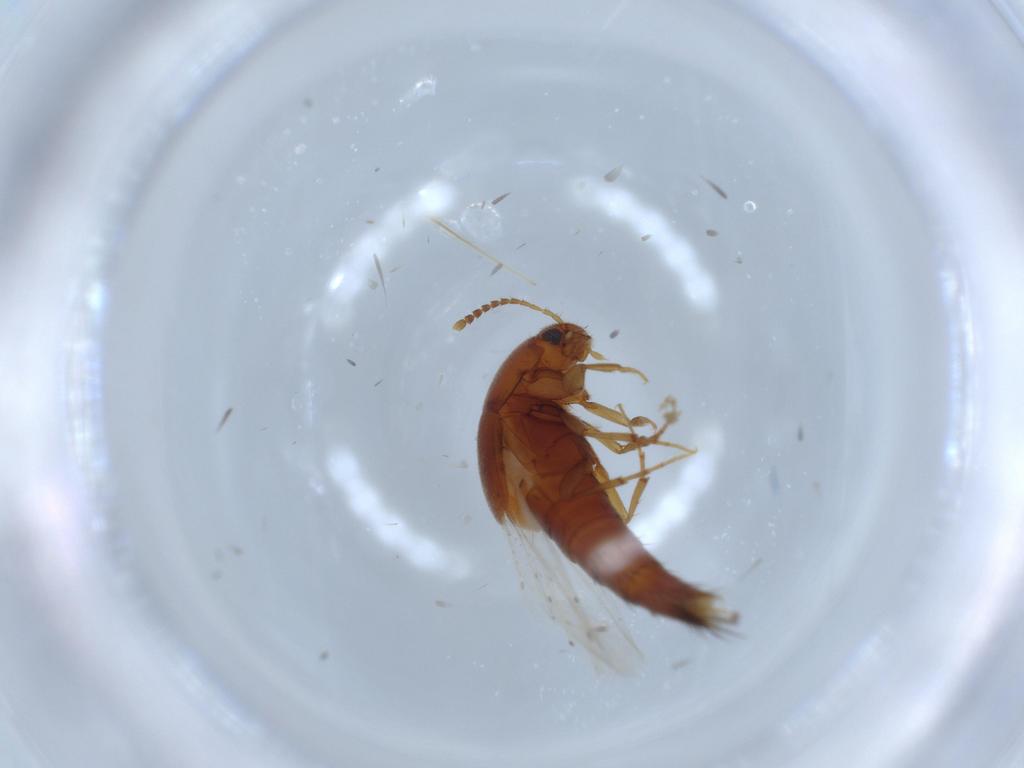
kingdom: Animalia
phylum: Arthropoda
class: Insecta
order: Coleoptera
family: Staphylinidae
